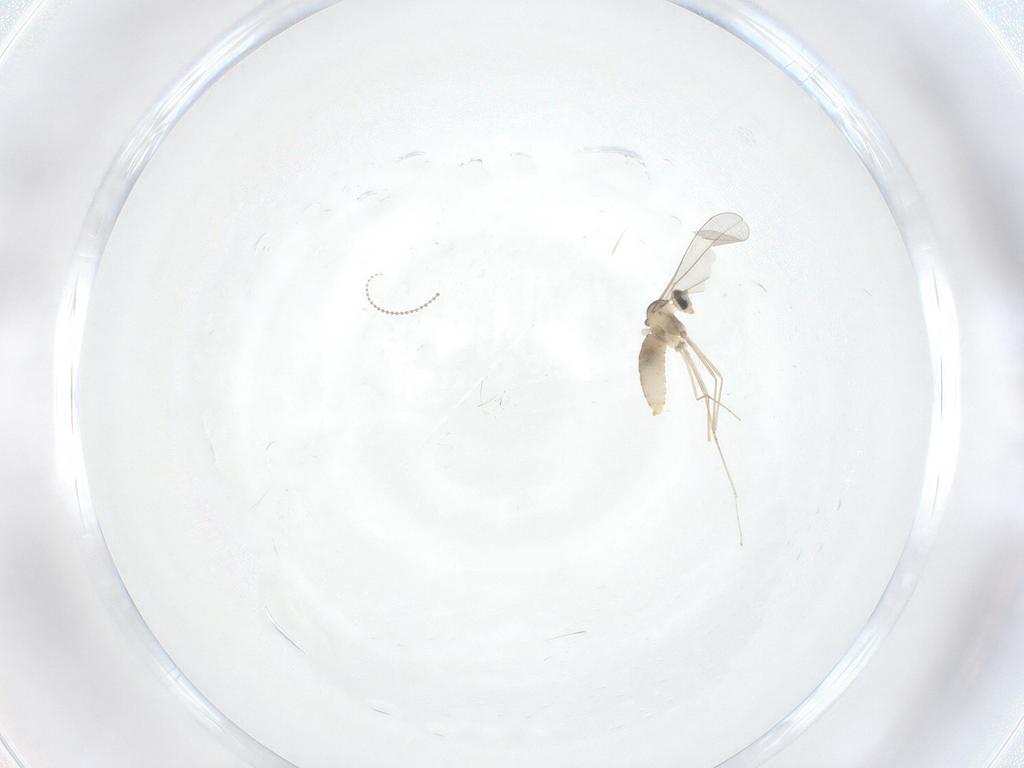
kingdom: Animalia
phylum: Arthropoda
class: Insecta
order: Diptera
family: Cecidomyiidae
